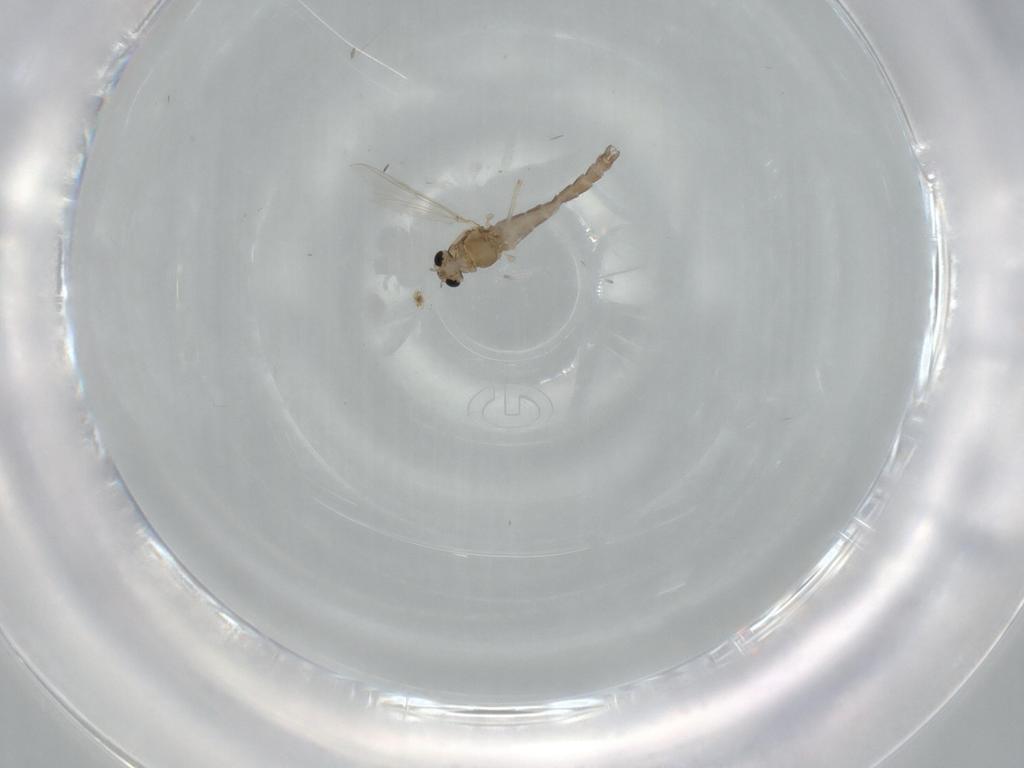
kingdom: Animalia
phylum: Arthropoda
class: Insecta
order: Diptera
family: Chironomidae
